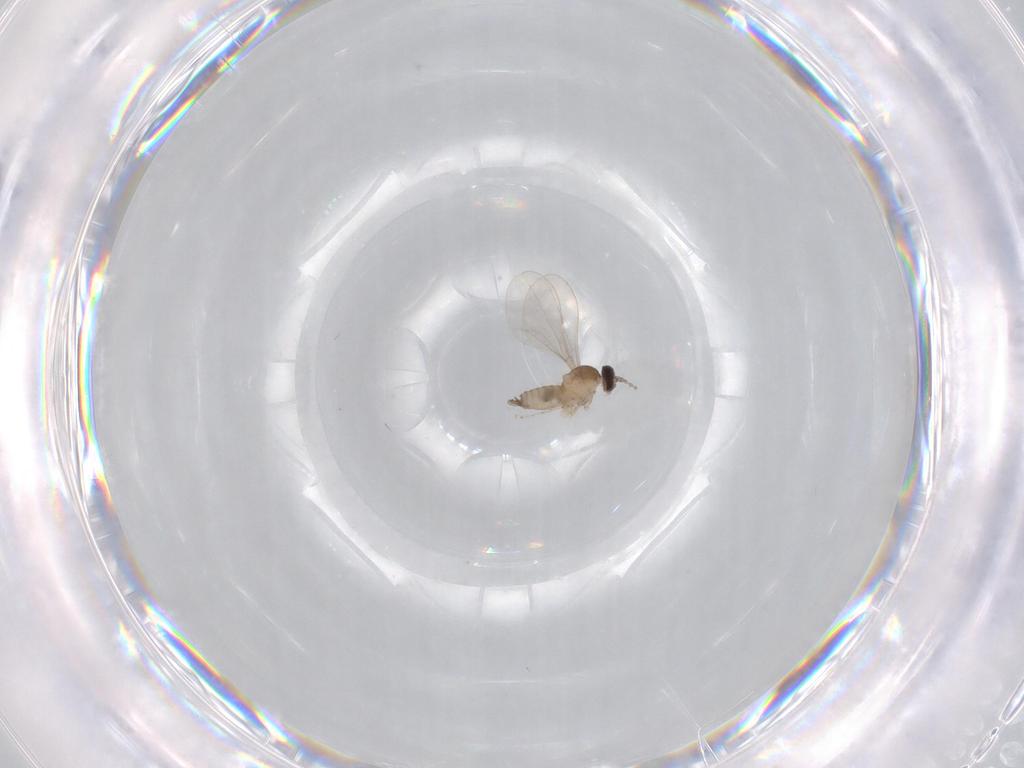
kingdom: Animalia
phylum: Arthropoda
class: Insecta
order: Diptera
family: Cecidomyiidae
